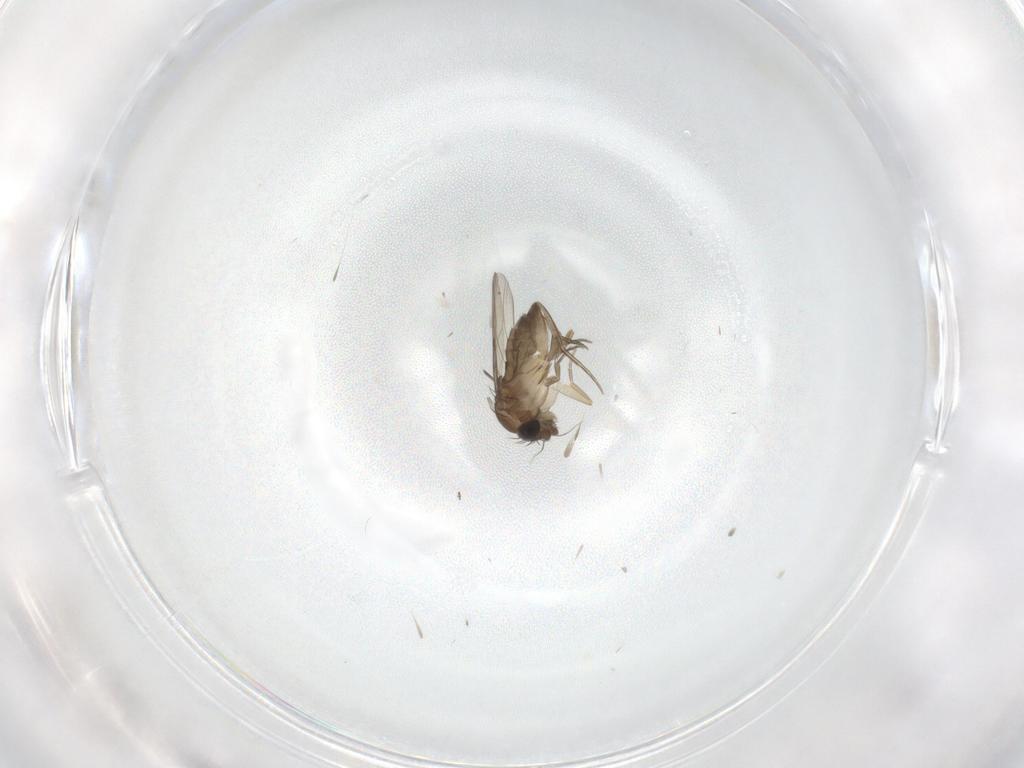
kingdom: Animalia
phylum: Arthropoda
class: Insecta
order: Diptera
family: Phoridae
